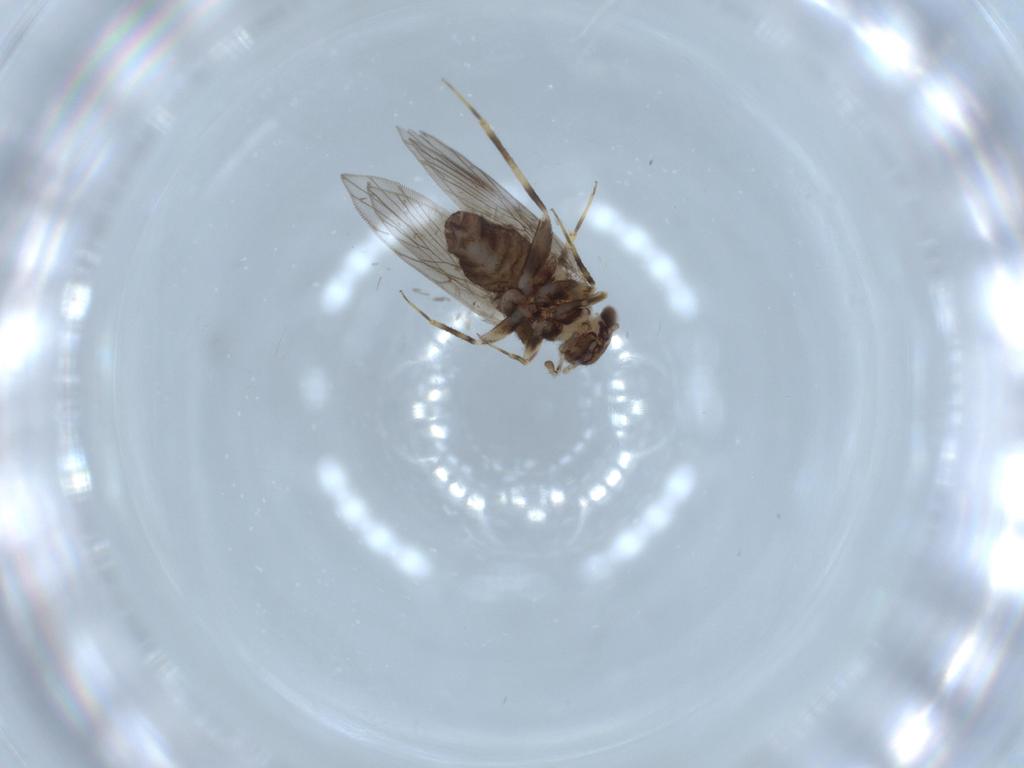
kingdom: Animalia
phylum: Arthropoda
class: Insecta
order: Psocodea
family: Lepidopsocidae
